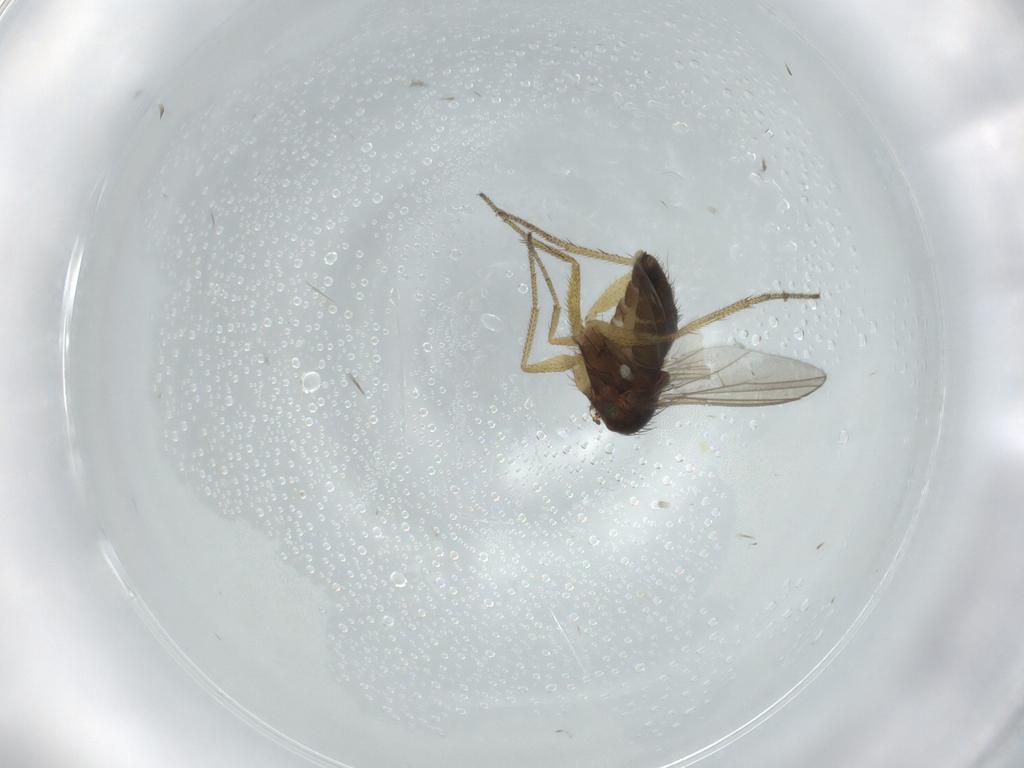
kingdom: Animalia
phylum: Arthropoda
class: Insecta
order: Diptera
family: Dolichopodidae
